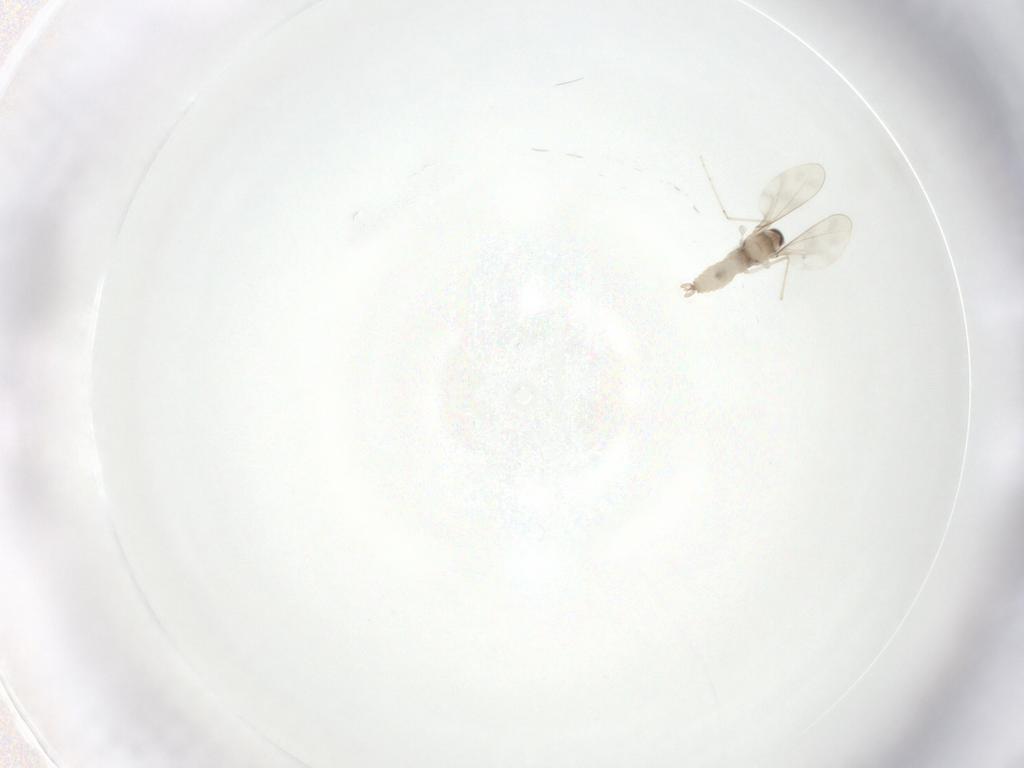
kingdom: Animalia
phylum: Arthropoda
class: Insecta
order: Diptera
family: Cecidomyiidae
